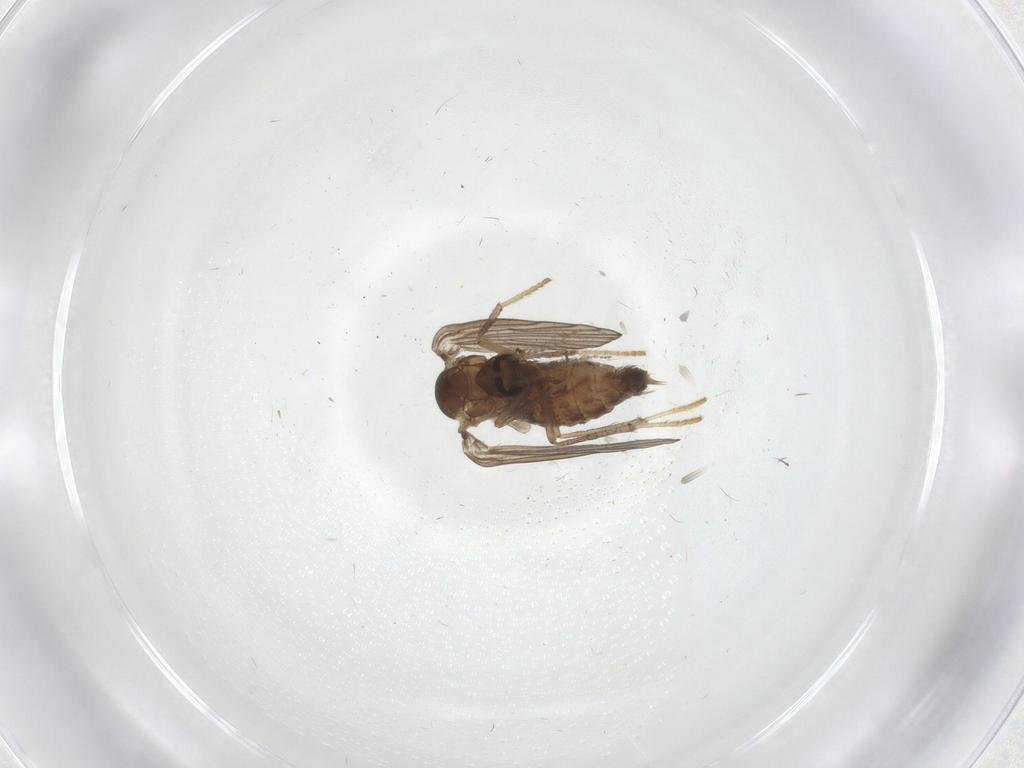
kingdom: Animalia
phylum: Arthropoda
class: Insecta
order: Diptera
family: Psychodidae
